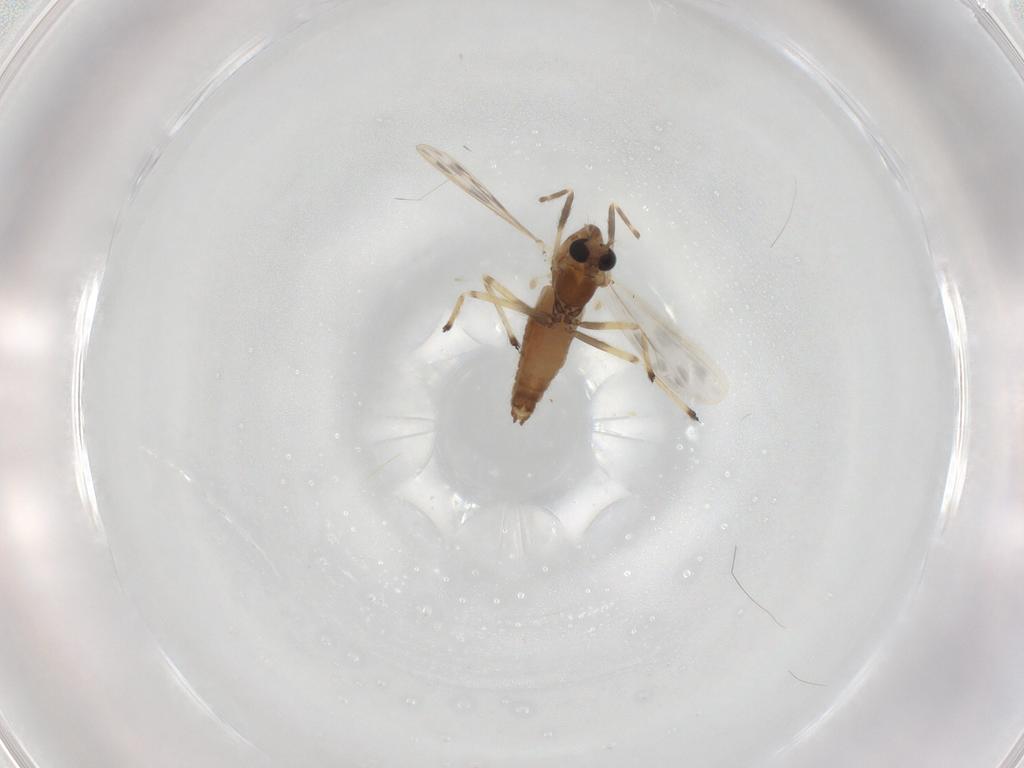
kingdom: Animalia
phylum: Arthropoda
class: Insecta
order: Diptera
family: Chironomidae
